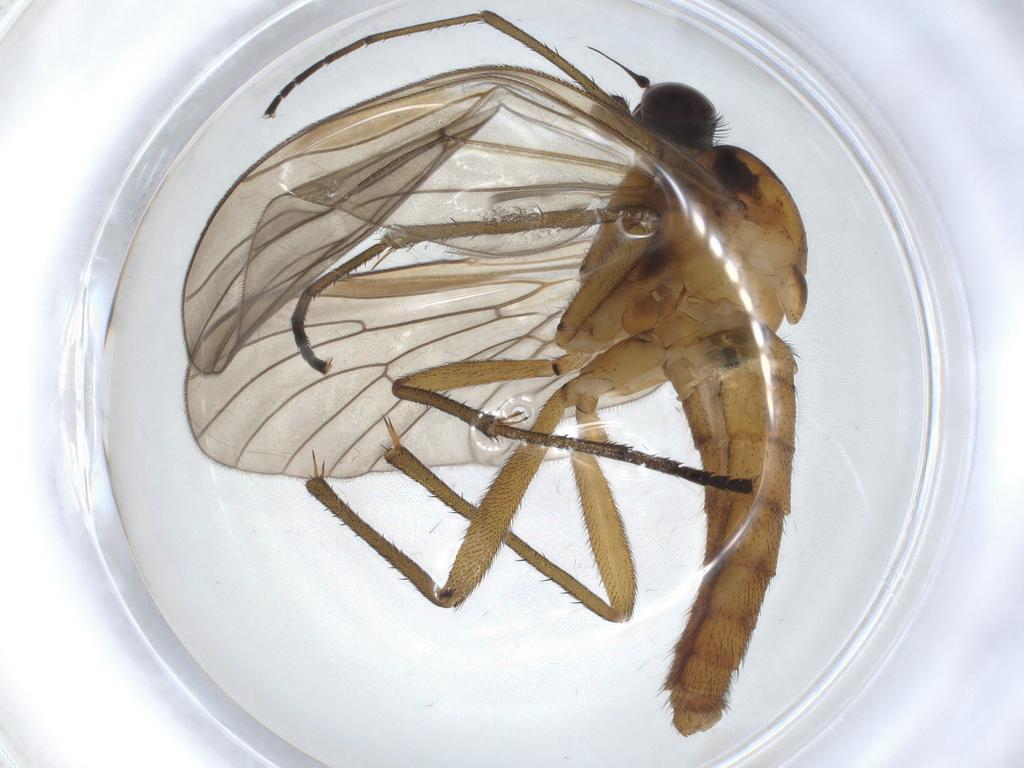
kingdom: Animalia
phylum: Arthropoda
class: Insecta
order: Diptera
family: Rhagionidae
